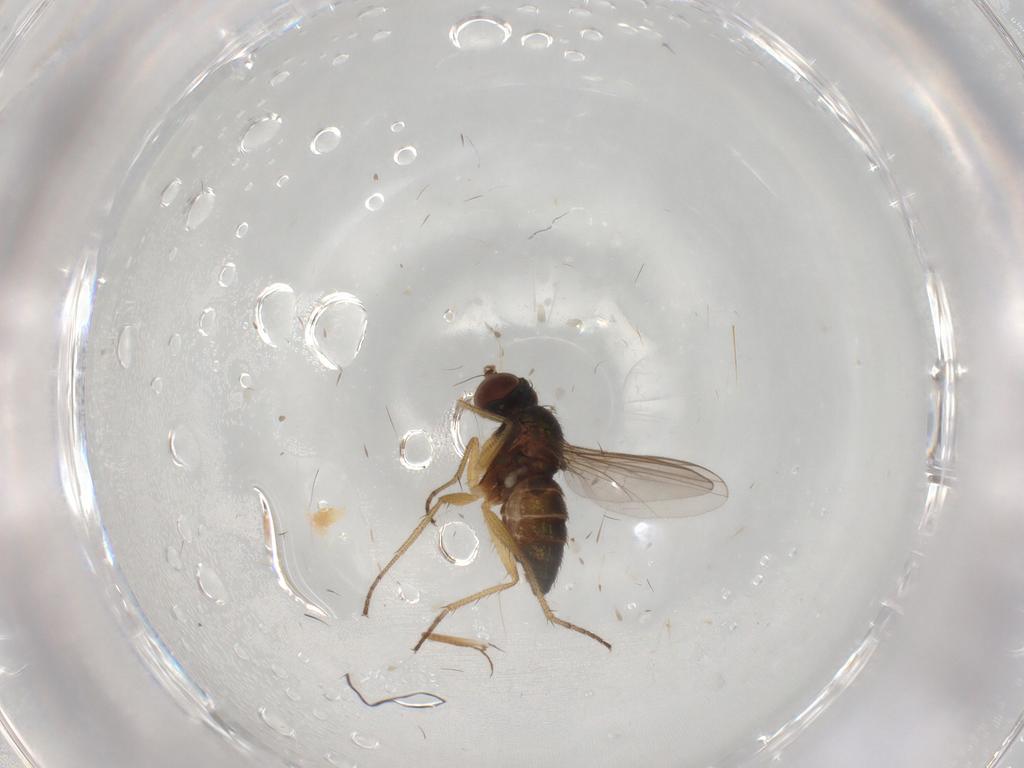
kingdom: Animalia
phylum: Arthropoda
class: Insecta
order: Diptera
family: Ceratopogonidae
